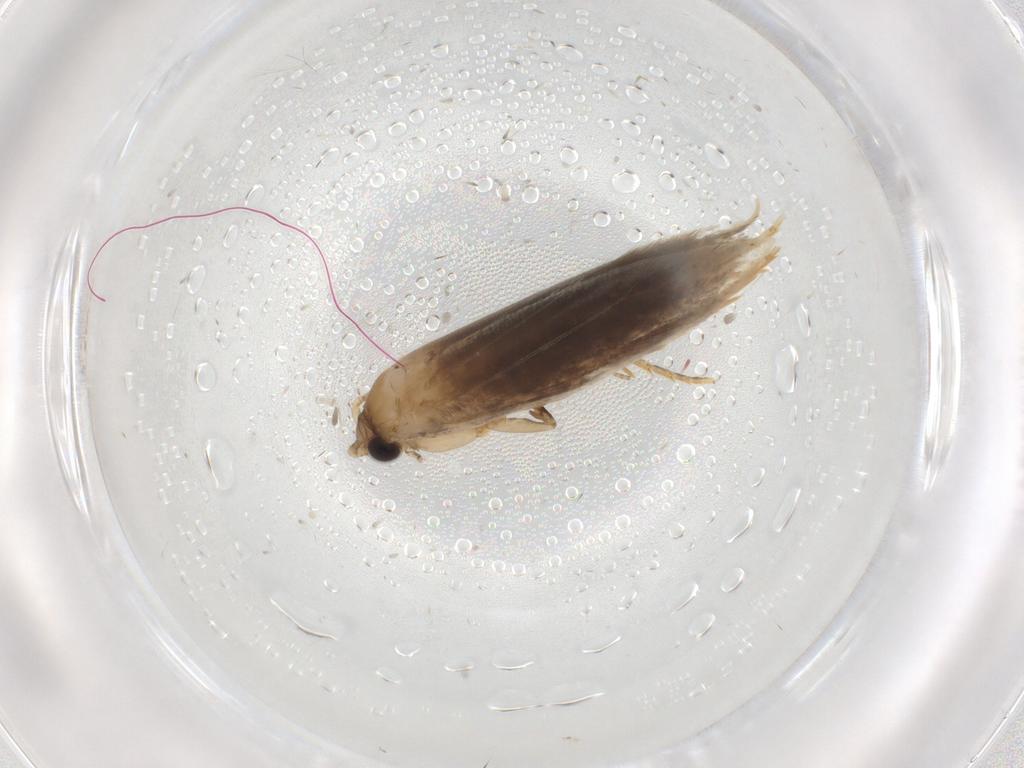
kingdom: Animalia
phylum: Arthropoda
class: Insecta
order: Lepidoptera
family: Tineidae
